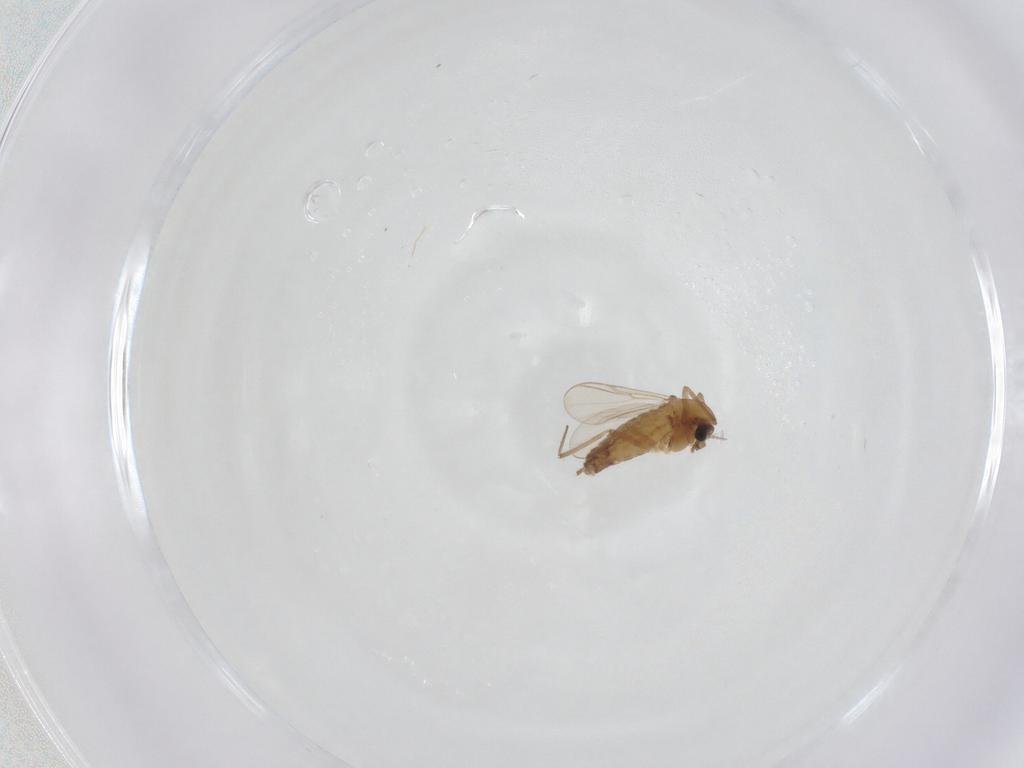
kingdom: Animalia
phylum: Arthropoda
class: Insecta
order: Diptera
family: Chironomidae
